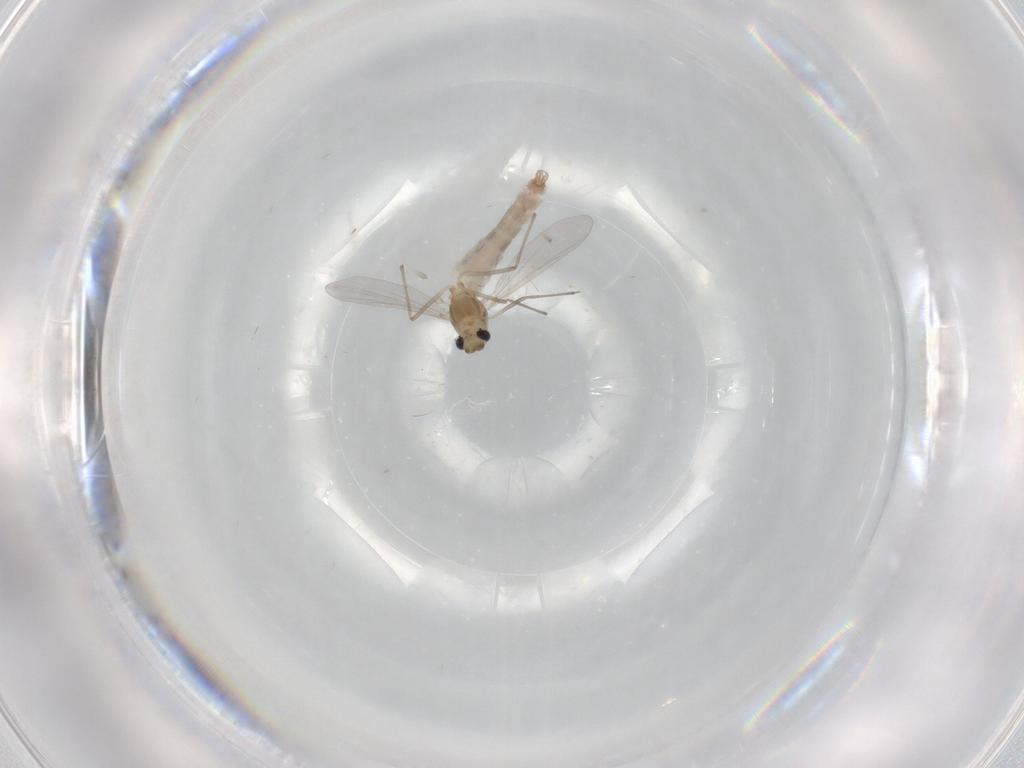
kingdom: Animalia
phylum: Arthropoda
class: Insecta
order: Diptera
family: Chironomidae
